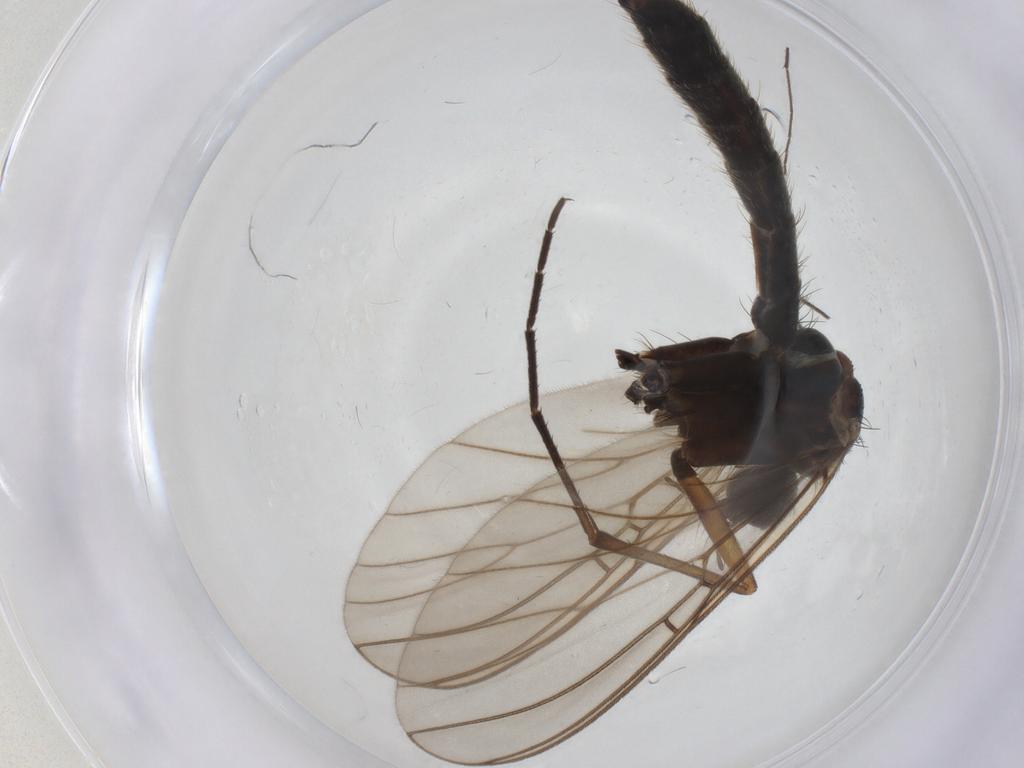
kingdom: Animalia
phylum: Arthropoda
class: Insecta
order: Diptera
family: Mycetophilidae
